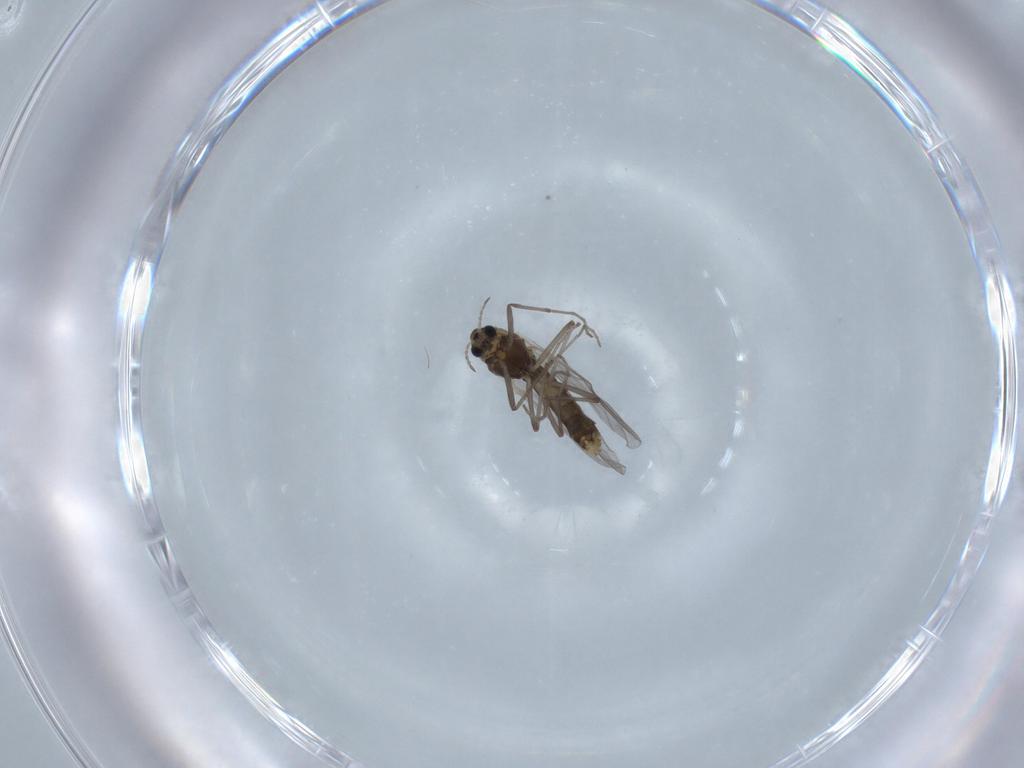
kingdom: Animalia
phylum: Arthropoda
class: Insecta
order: Diptera
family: Chironomidae
